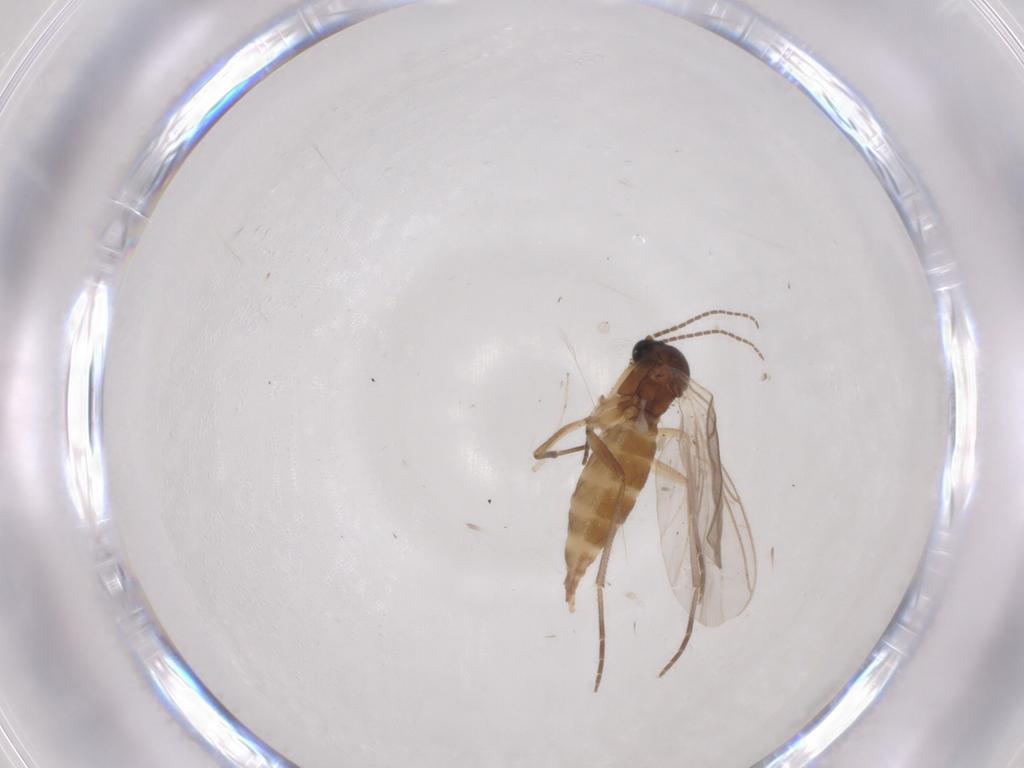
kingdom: Animalia
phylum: Arthropoda
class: Insecta
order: Diptera
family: Sciaridae
